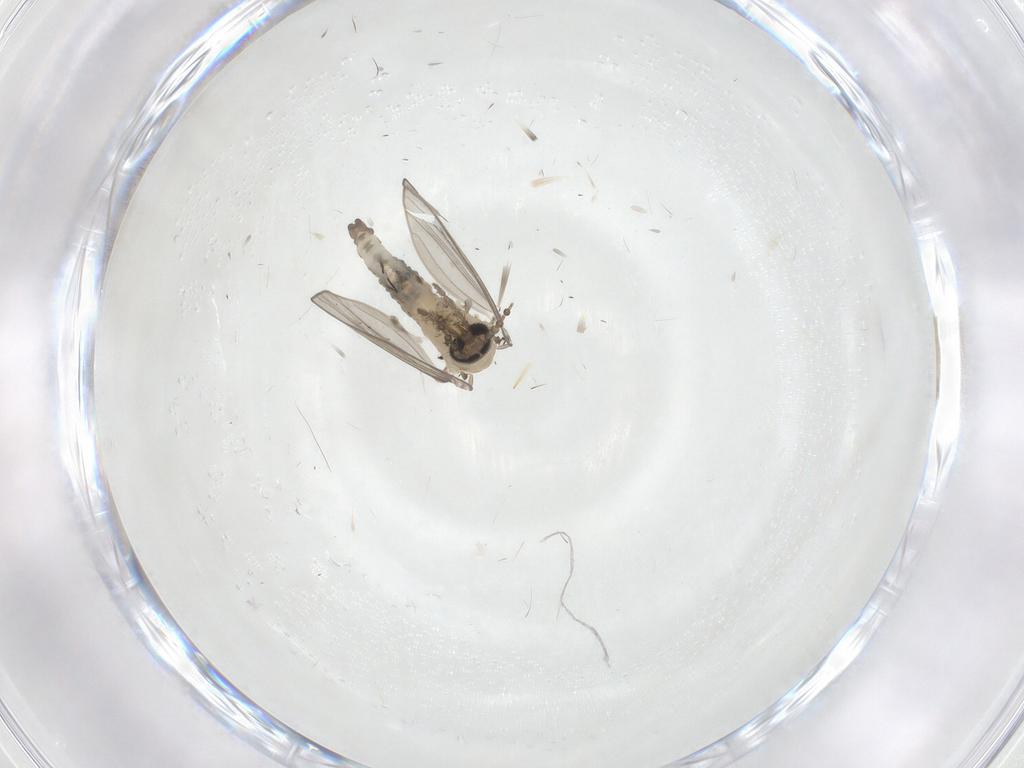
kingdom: Animalia
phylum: Arthropoda
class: Insecta
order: Diptera
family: Psychodidae
